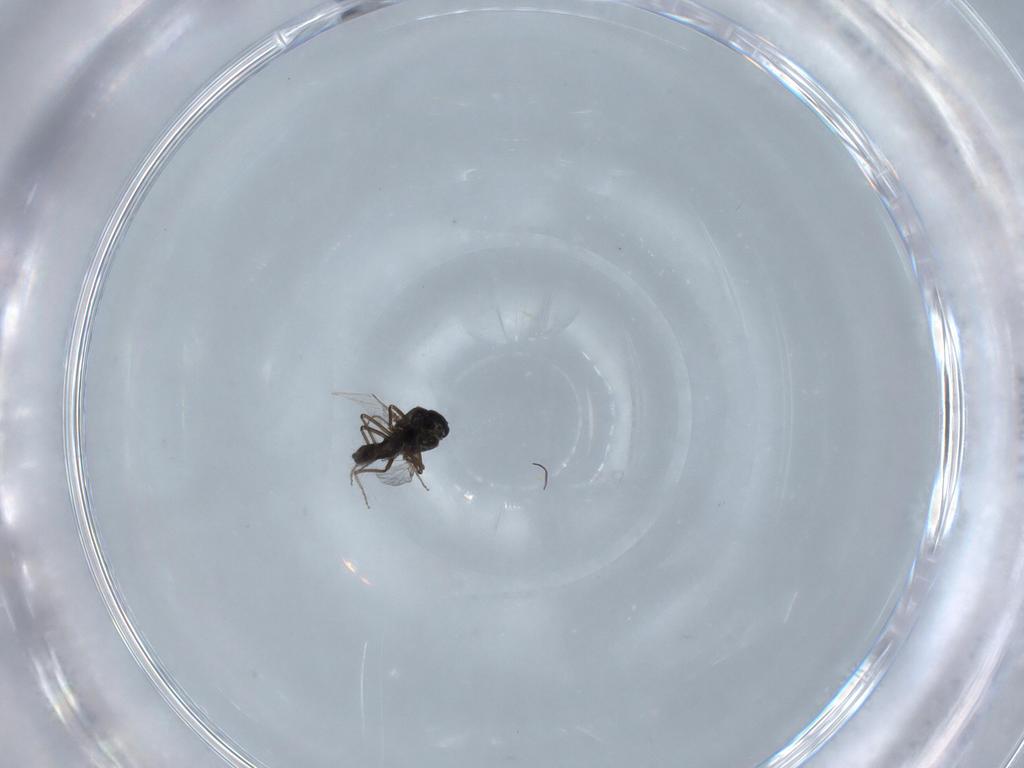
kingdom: Animalia
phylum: Arthropoda
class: Insecta
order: Diptera
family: Ceratopogonidae
